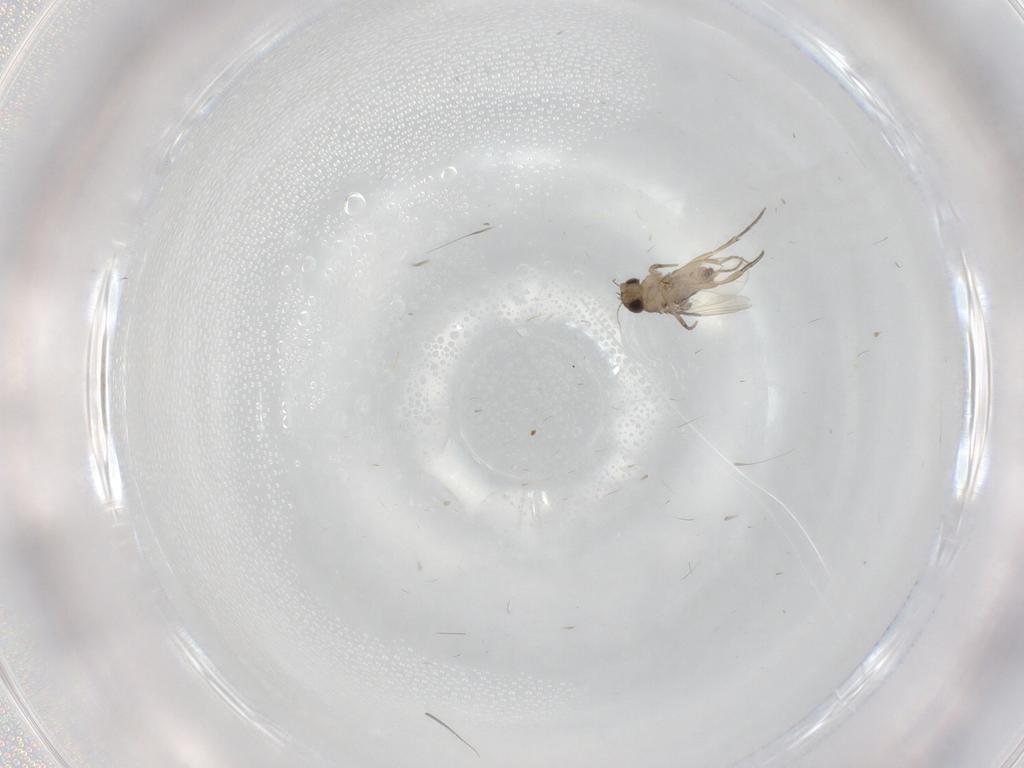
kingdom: Animalia
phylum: Arthropoda
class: Insecta
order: Diptera
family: Phoridae
